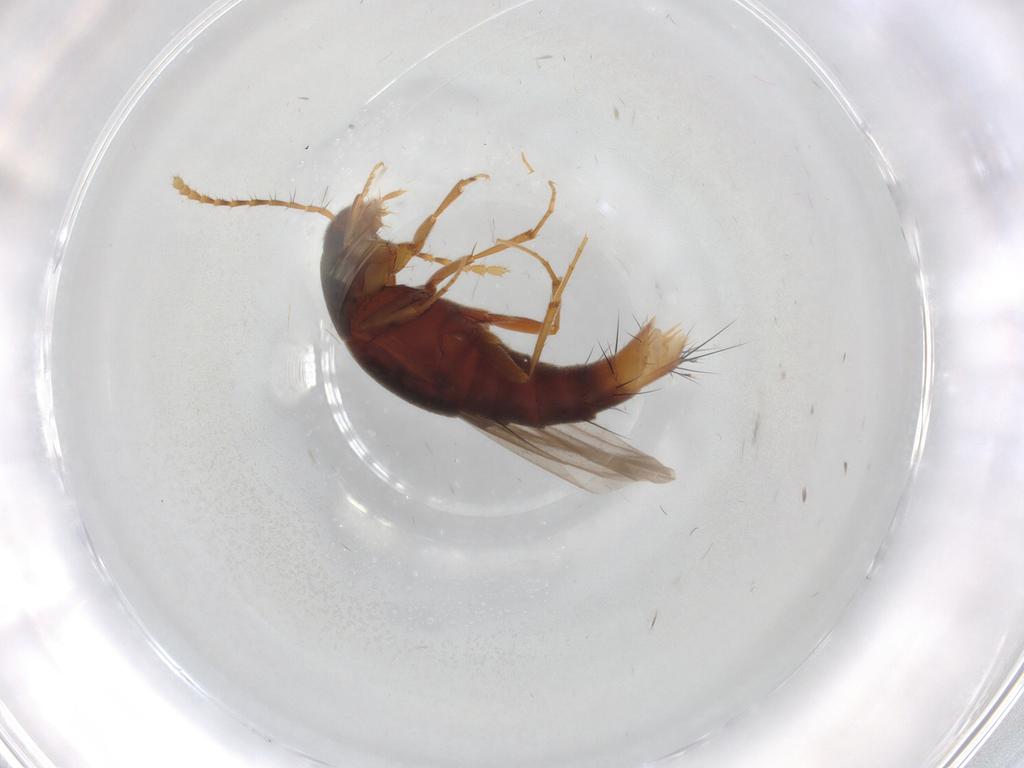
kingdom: Animalia
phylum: Arthropoda
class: Insecta
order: Coleoptera
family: Staphylinidae
